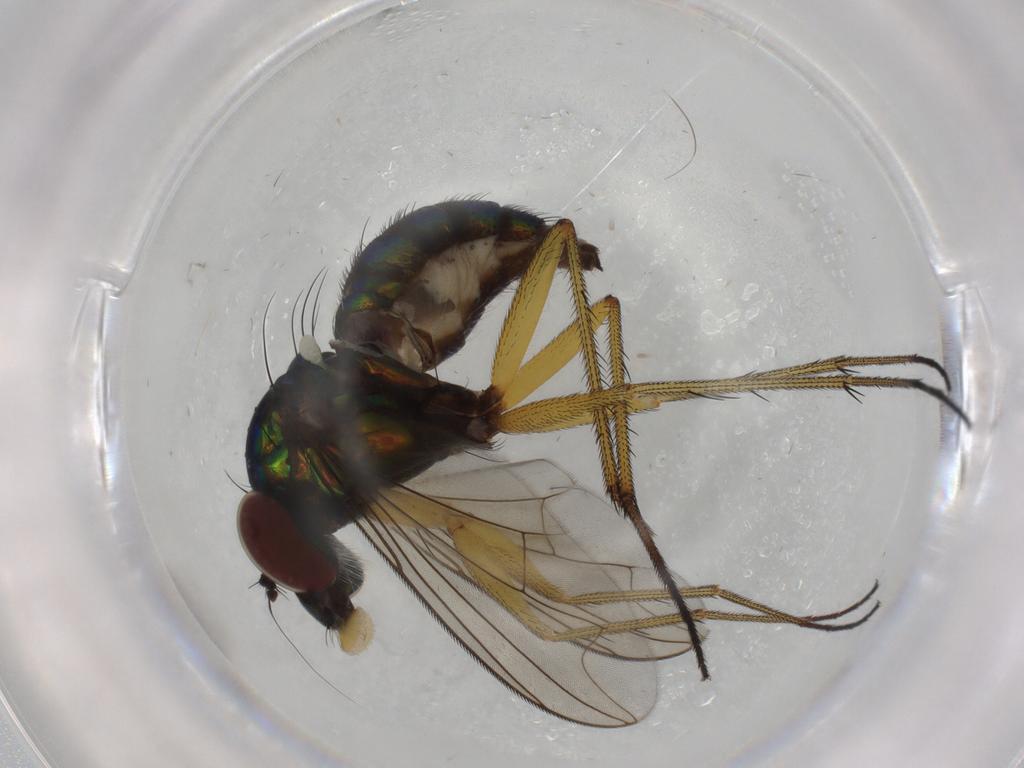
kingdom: Animalia
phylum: Arthropoda
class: Insecta
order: Diptera
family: Dolichopodidae
